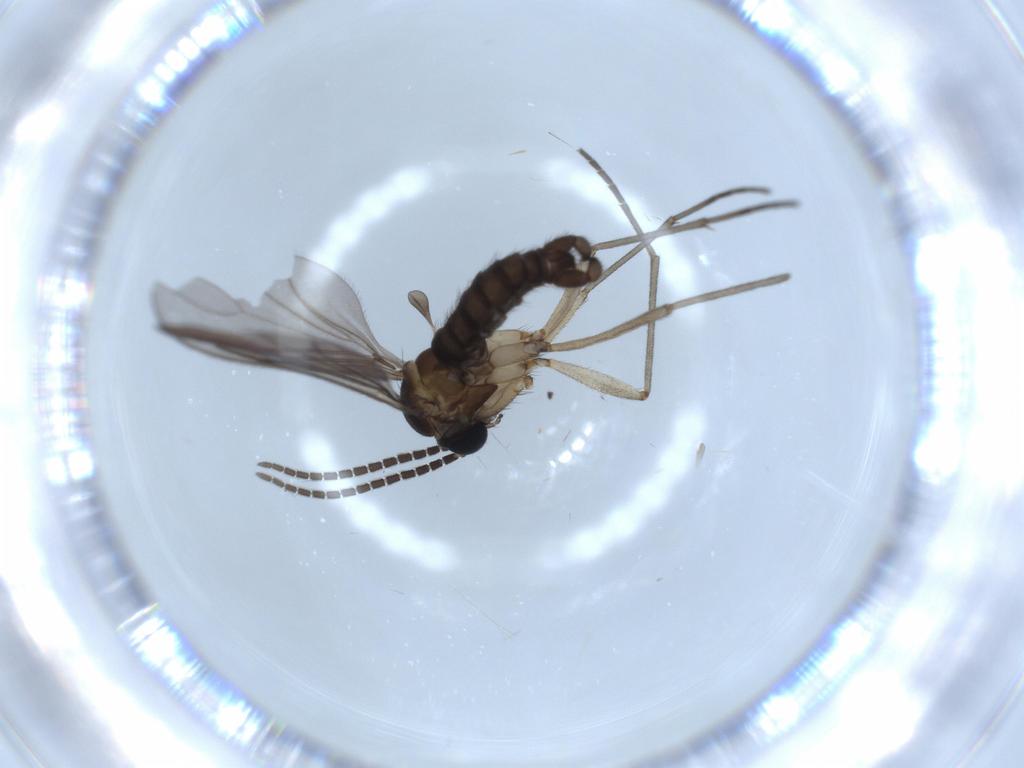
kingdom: Animalia
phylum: Arthropoda
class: Insecta
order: Diptera
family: Sciaridae
